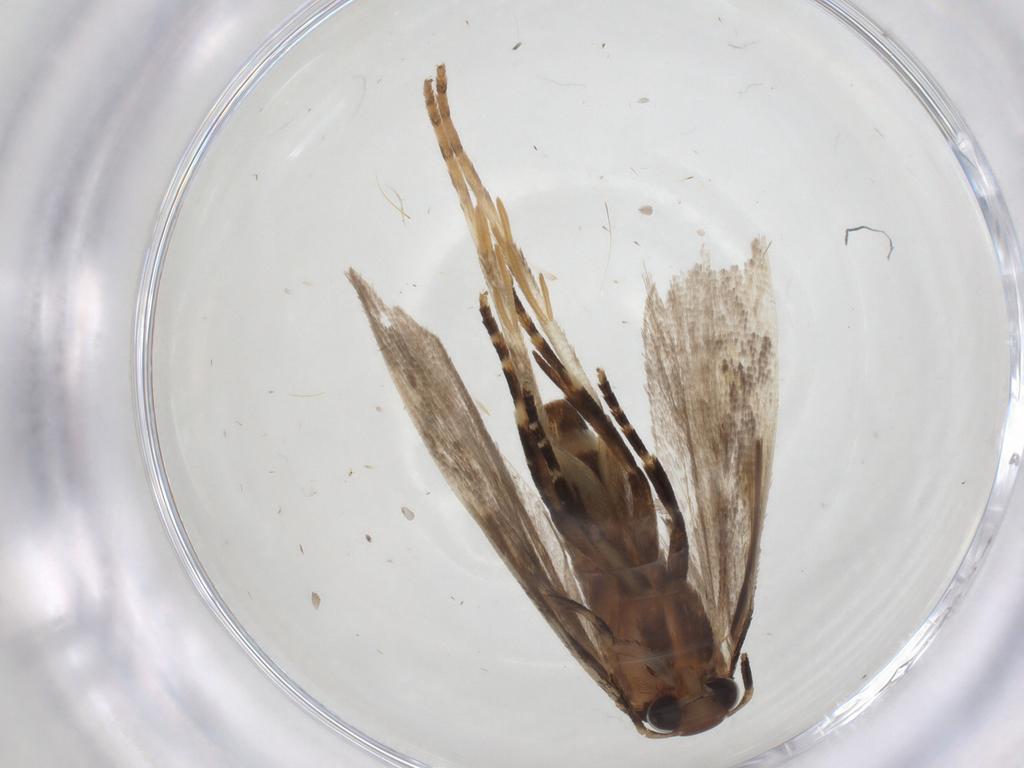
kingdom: Animalia
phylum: Arthropoda
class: Insecta
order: Lepidoptera
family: Gelechiidae
